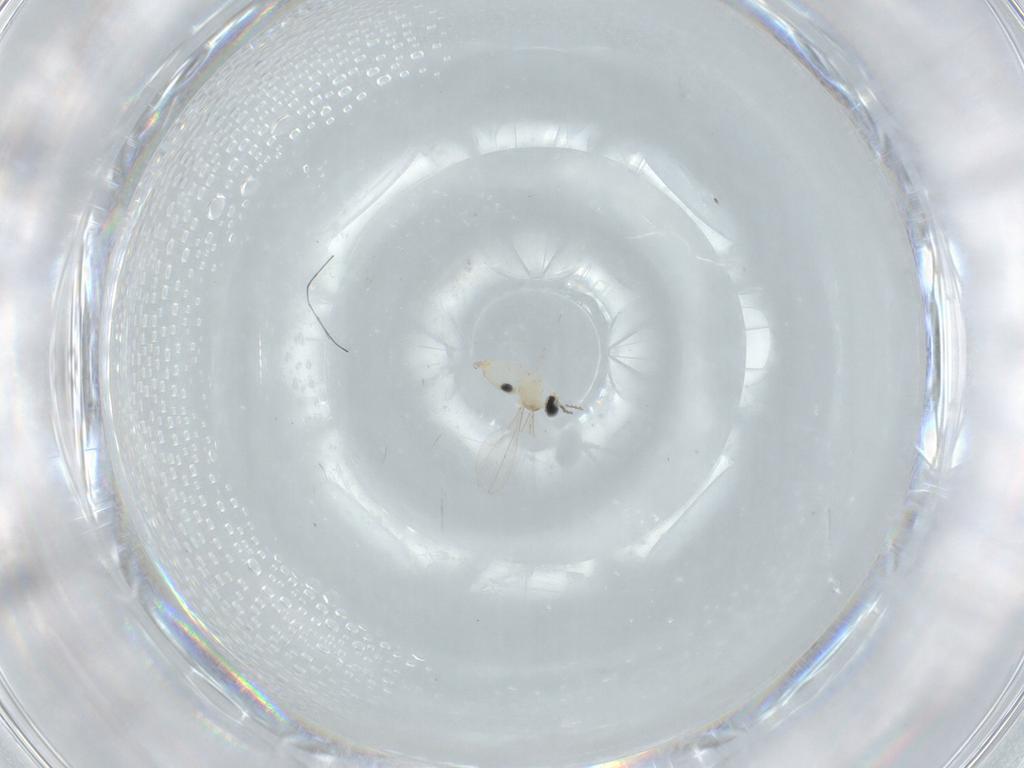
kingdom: Animalia
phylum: Arthropoda
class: Insecta
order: Diptera
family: Cecidomyiidae
